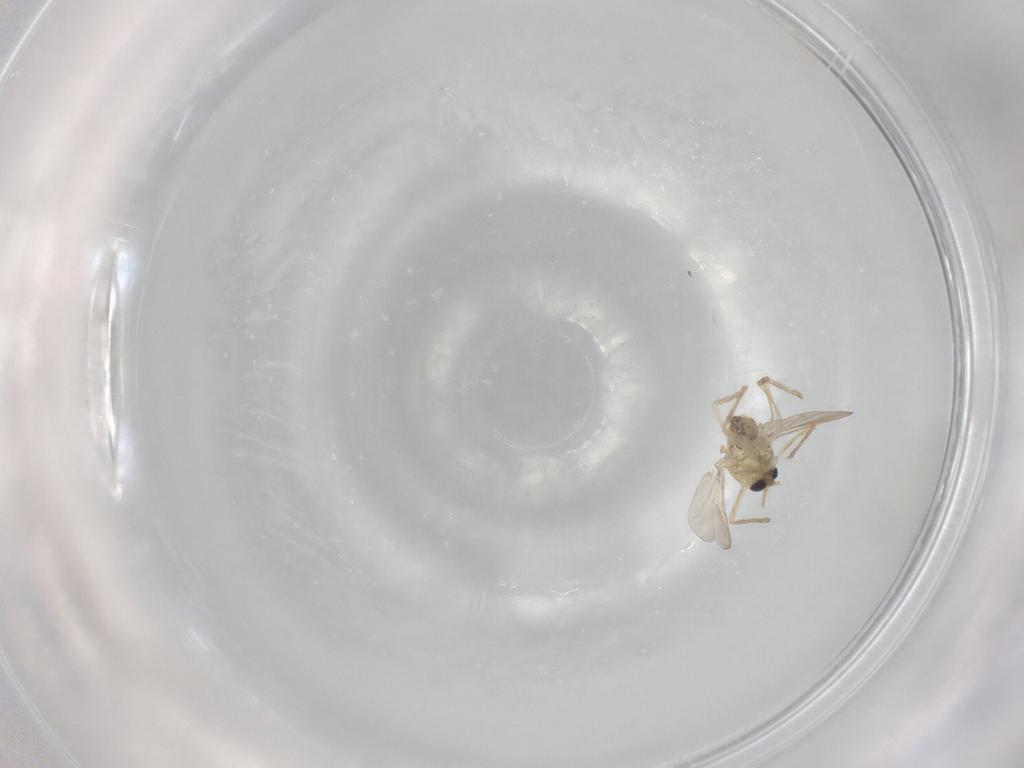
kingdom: Animalia
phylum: Arthropoda
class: Insecta
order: Diptera
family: Chironomidae
